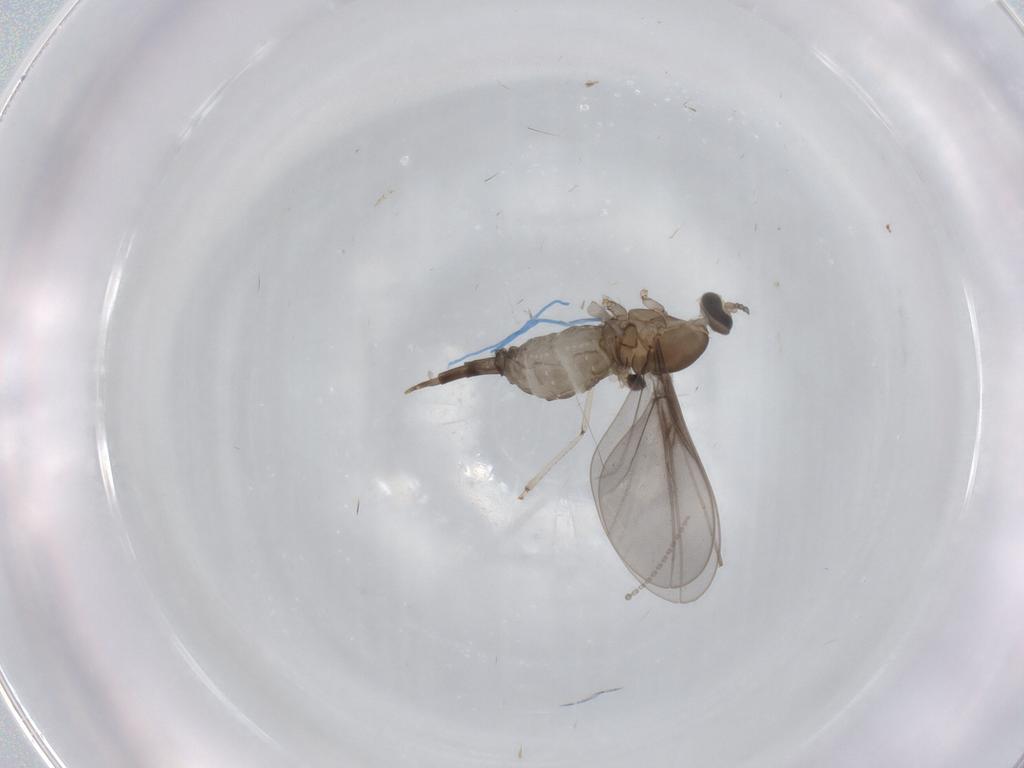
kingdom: Animalia
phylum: Arthropoda
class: Insecta
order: Diptera
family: Cecidomyiidae
